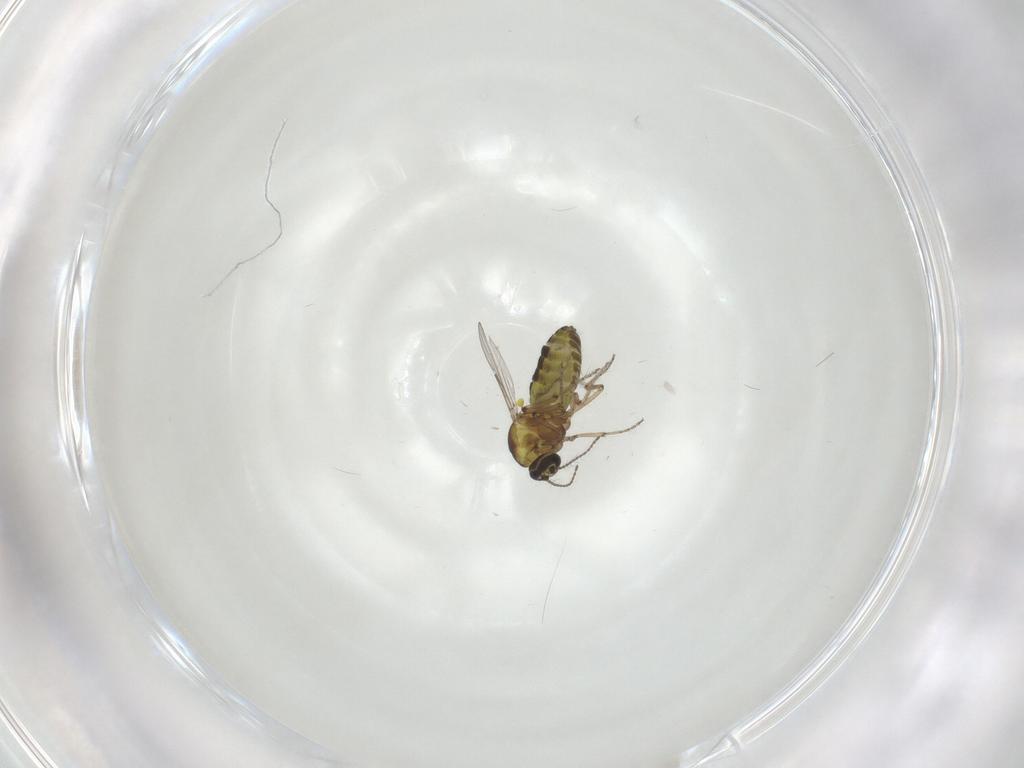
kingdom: Animalia
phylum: Arthropoda
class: Insecta
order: Diptera
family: Ceratopogonidae
